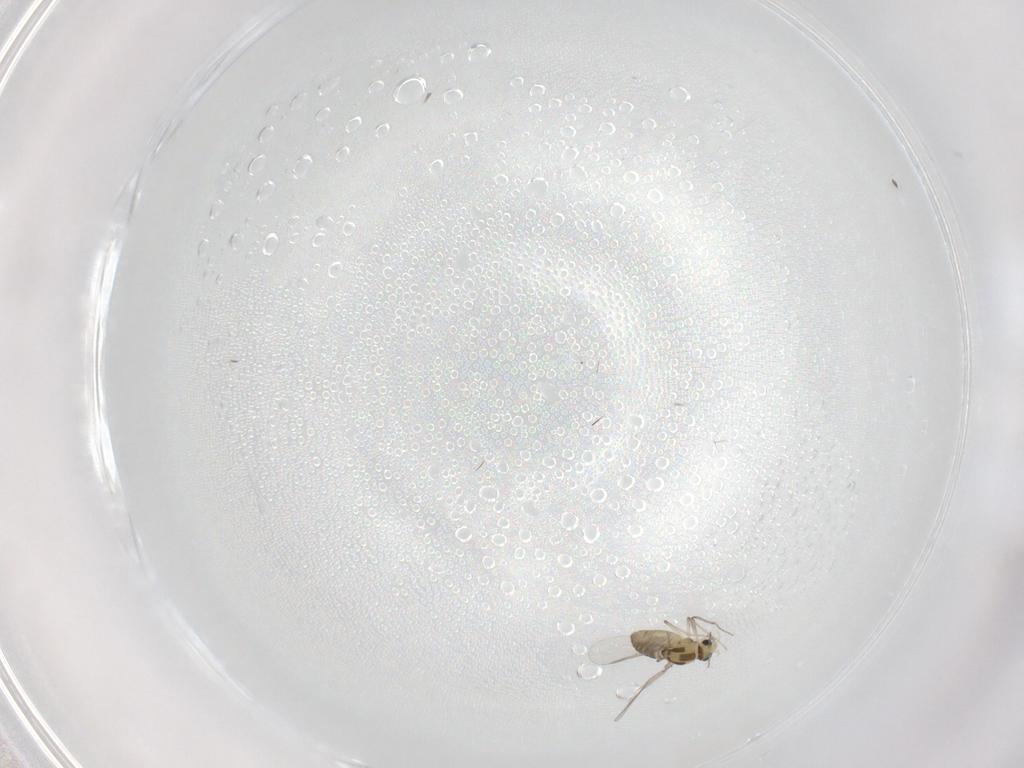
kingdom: Animalia
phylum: Arthropoda
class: Insecta
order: Diptera
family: Chironomidae
